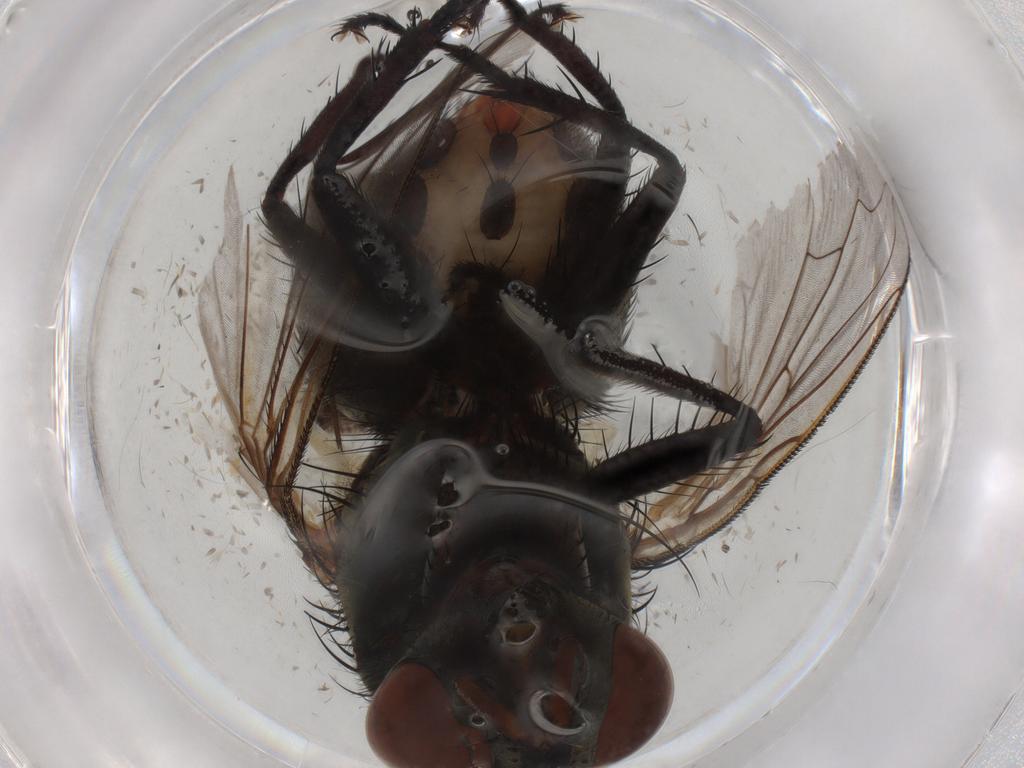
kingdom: Animalia
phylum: Arthropoda
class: Insecta
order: Diptera
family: Dolichopodidae
